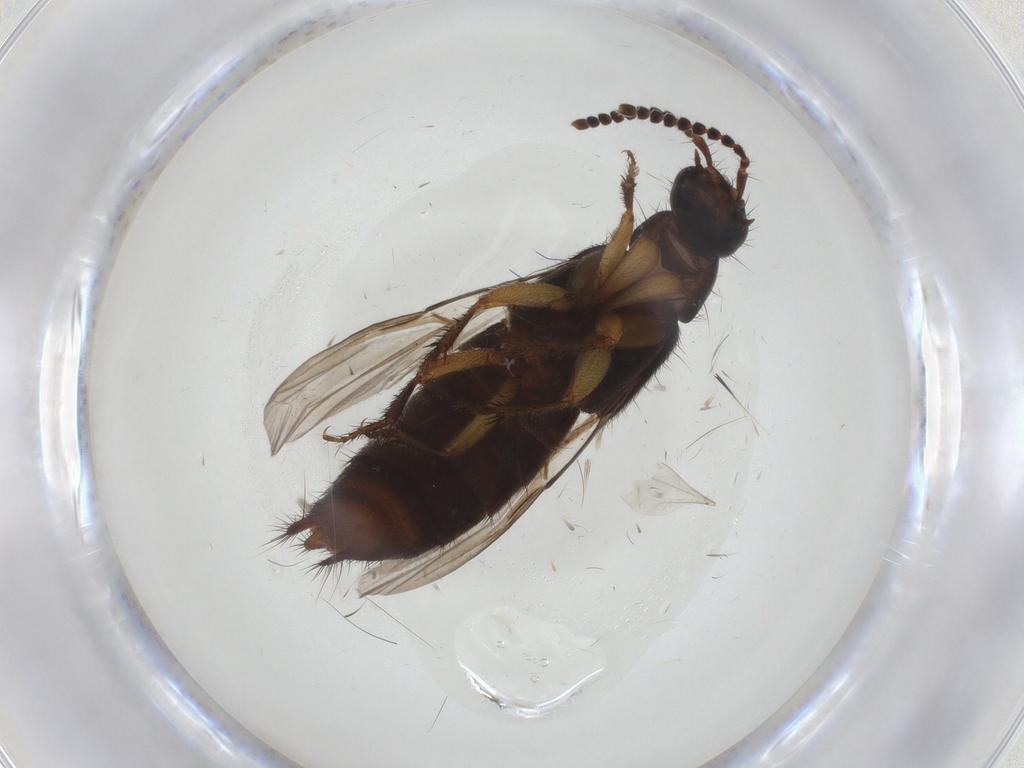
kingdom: Animalia
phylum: Arthropoda
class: Insecta
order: Coleoptera
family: Staphylinidae
